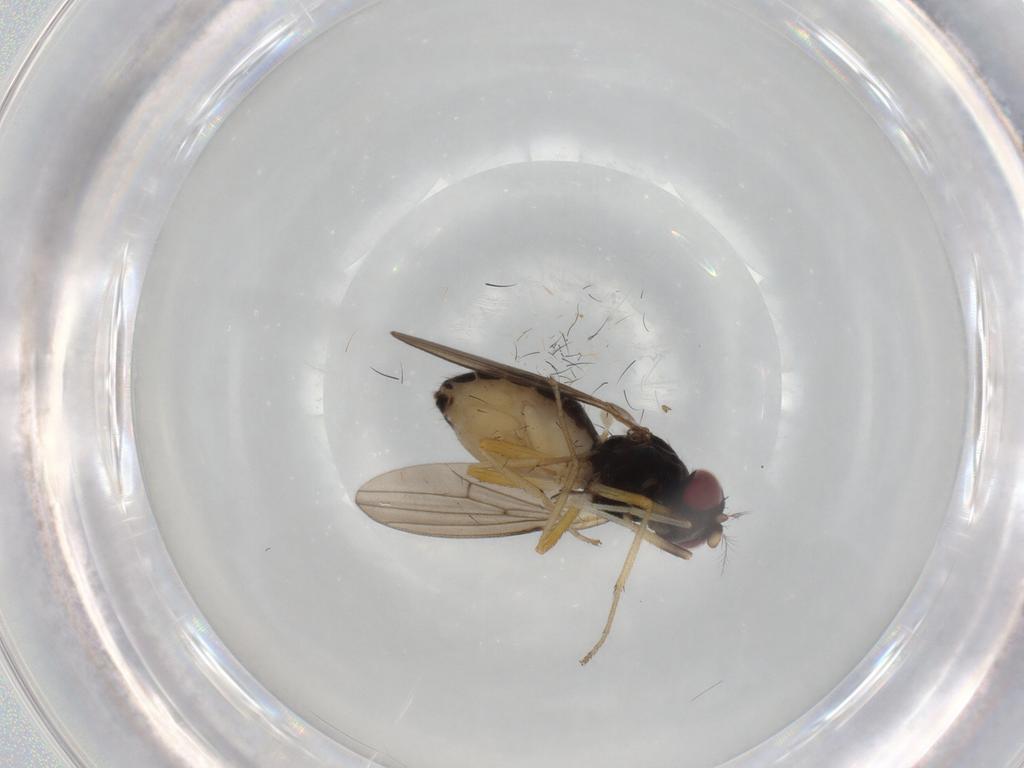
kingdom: Animalia
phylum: Arthropoda
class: Insecta
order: Diptera
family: Lauxaniidae
